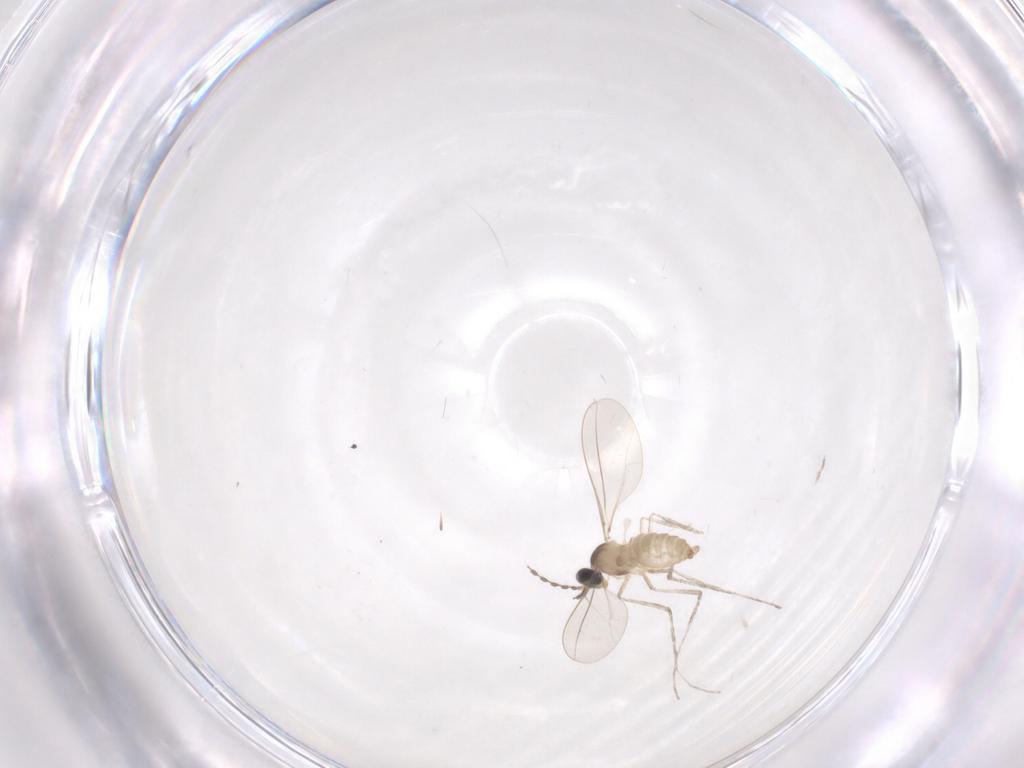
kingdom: Animalia
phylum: Arthropoda
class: Insecta
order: Diptera
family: Cecidomyiidae
